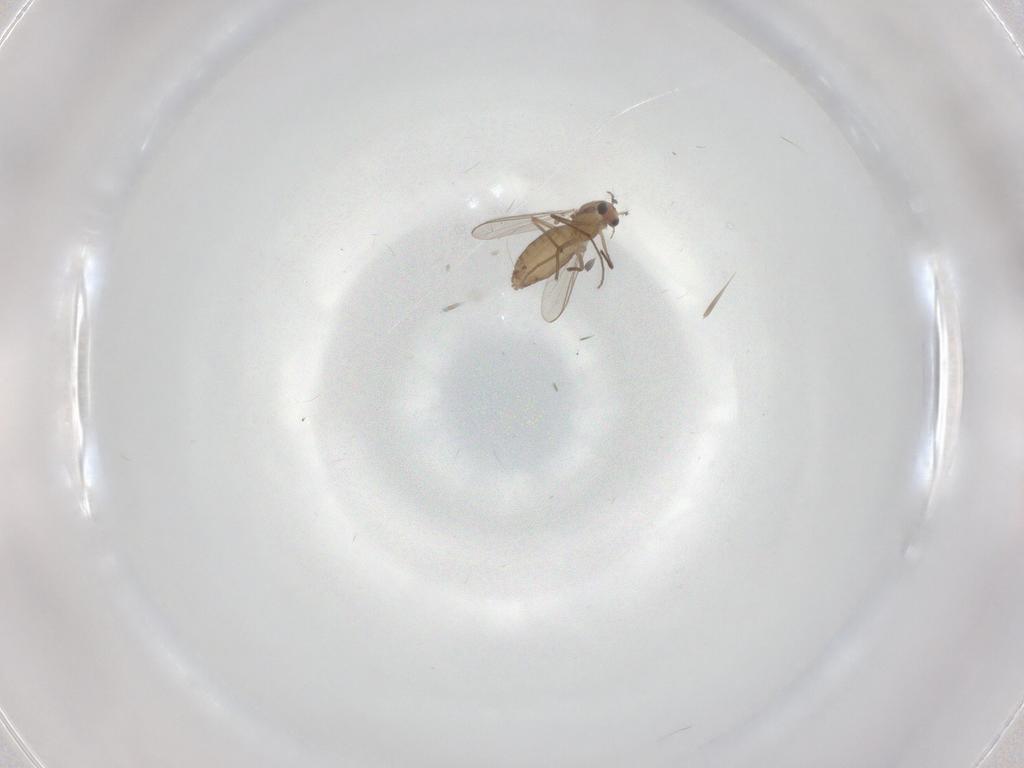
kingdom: Animalia
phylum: Arthropoda
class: Insecta
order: Diptera
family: Chironomidae
